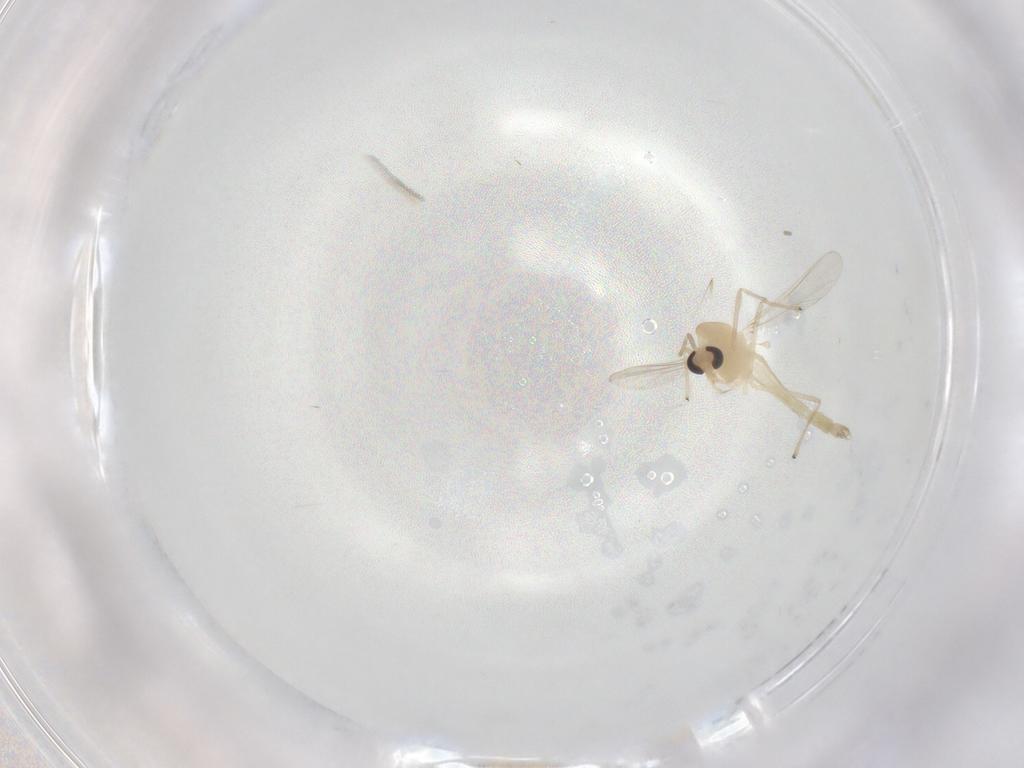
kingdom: Animalia
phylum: Arthropoda
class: Insecta
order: Diptera
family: Chironomidae
